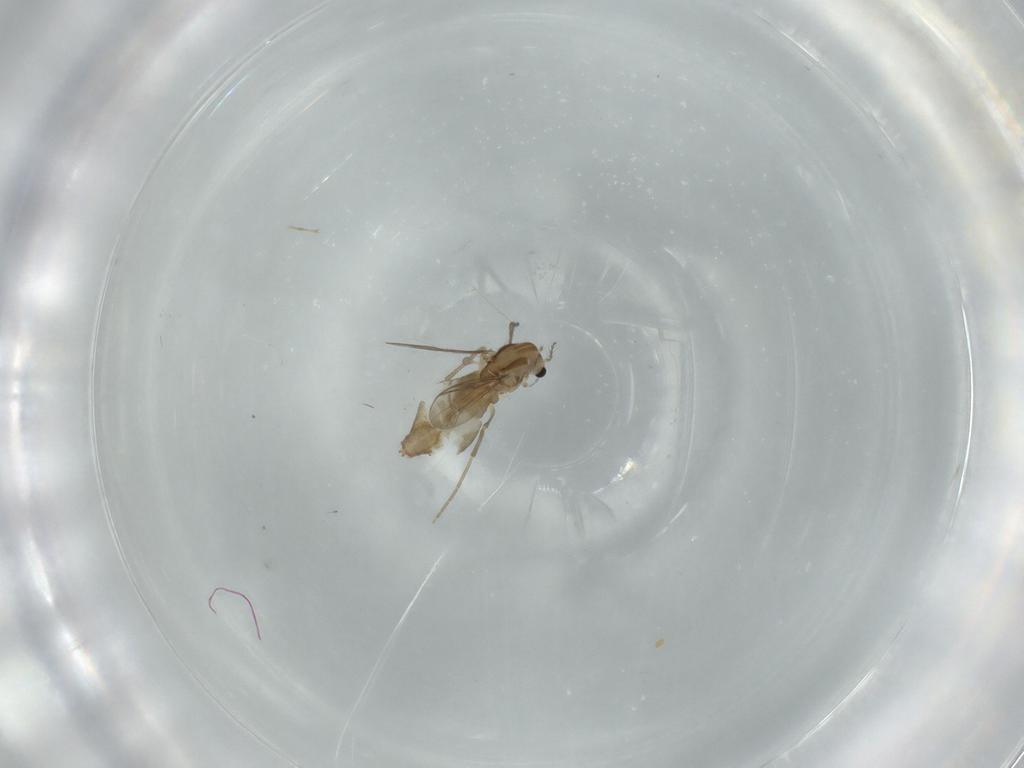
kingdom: Animalia
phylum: Arthropoda
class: Insecta
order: Diptera
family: Chironomidae
